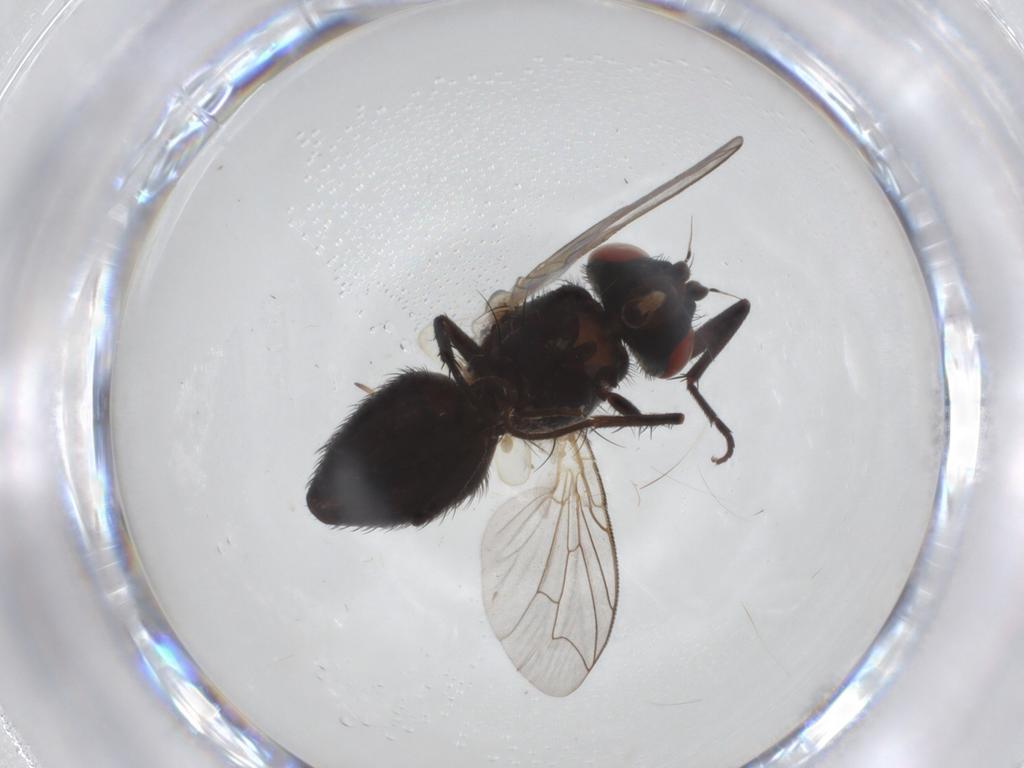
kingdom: Animalia
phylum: Arthropoda
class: Insecta
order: Diptera
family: Sarcophagidae
